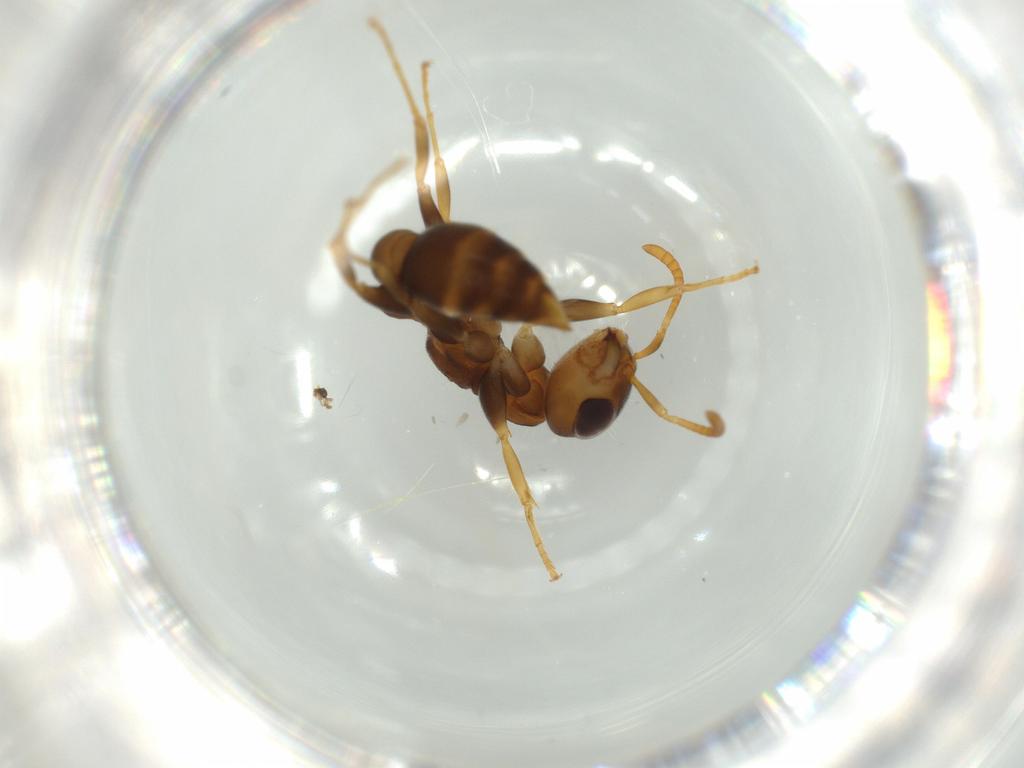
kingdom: Animalia
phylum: Arthropoda
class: Insecta
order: Hymenoptera
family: Formicidae
